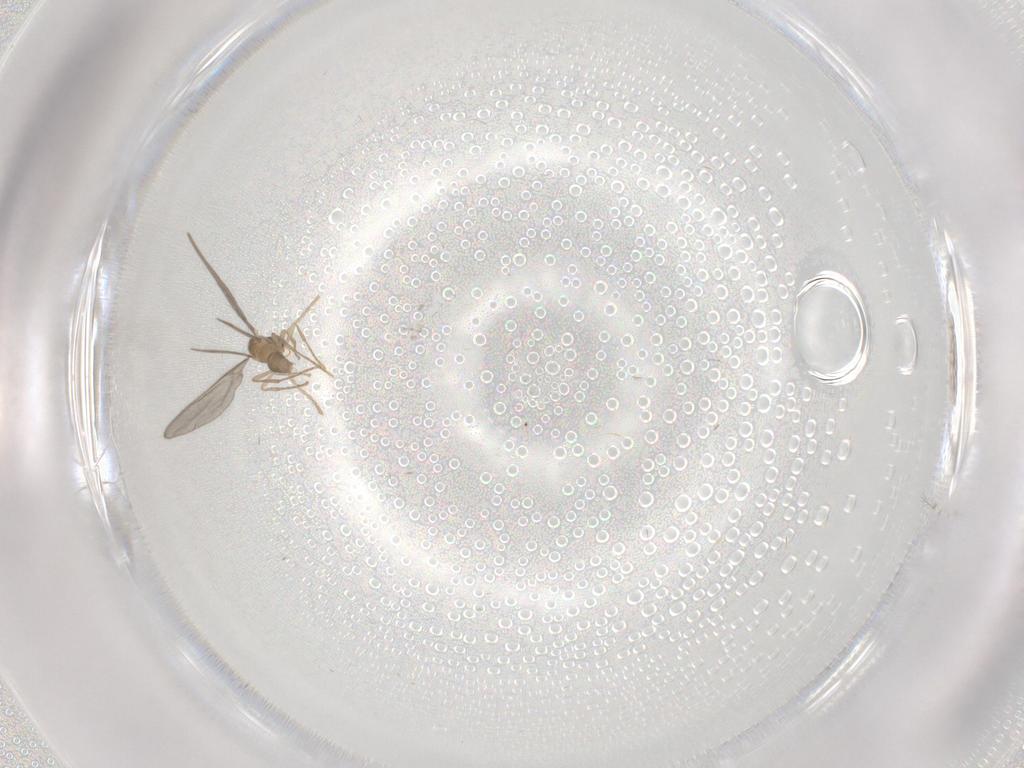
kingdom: Animalia
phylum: Arthropoda
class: Insecta
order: Hymenoptera
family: Formicidae
